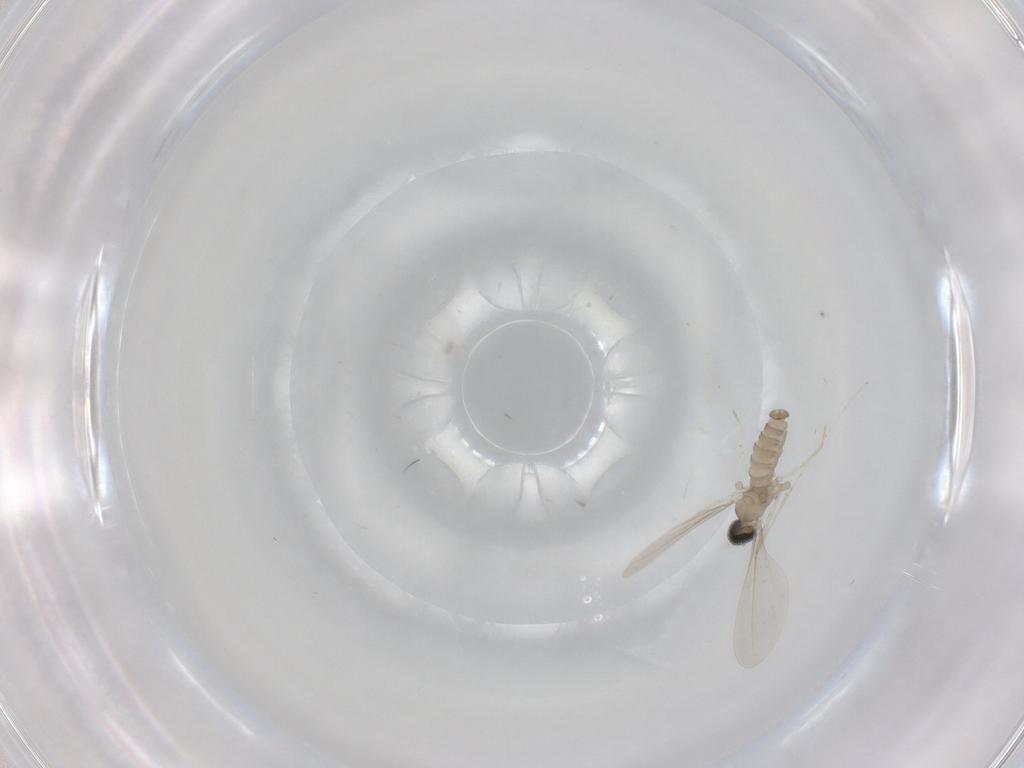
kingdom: Animalia
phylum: Arthropoda
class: Insecta
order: Diptera
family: Cecidomyiidae
